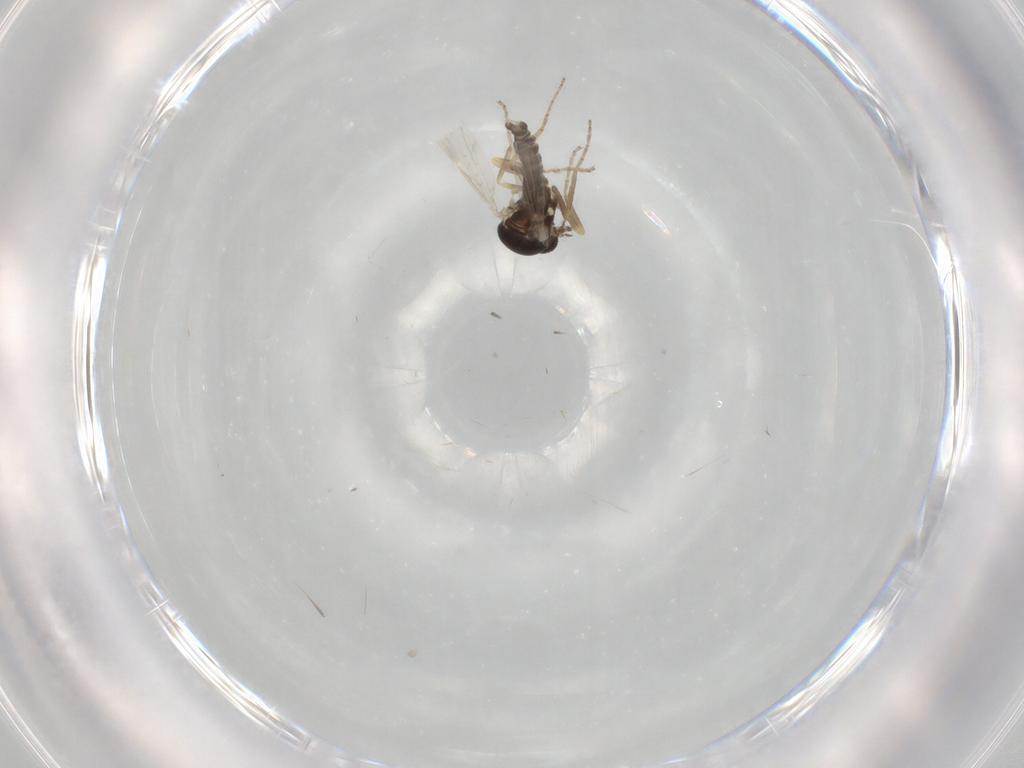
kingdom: Animalia
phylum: Arthropoda
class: Insecta
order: Diptera
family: Ceratopogonidae
